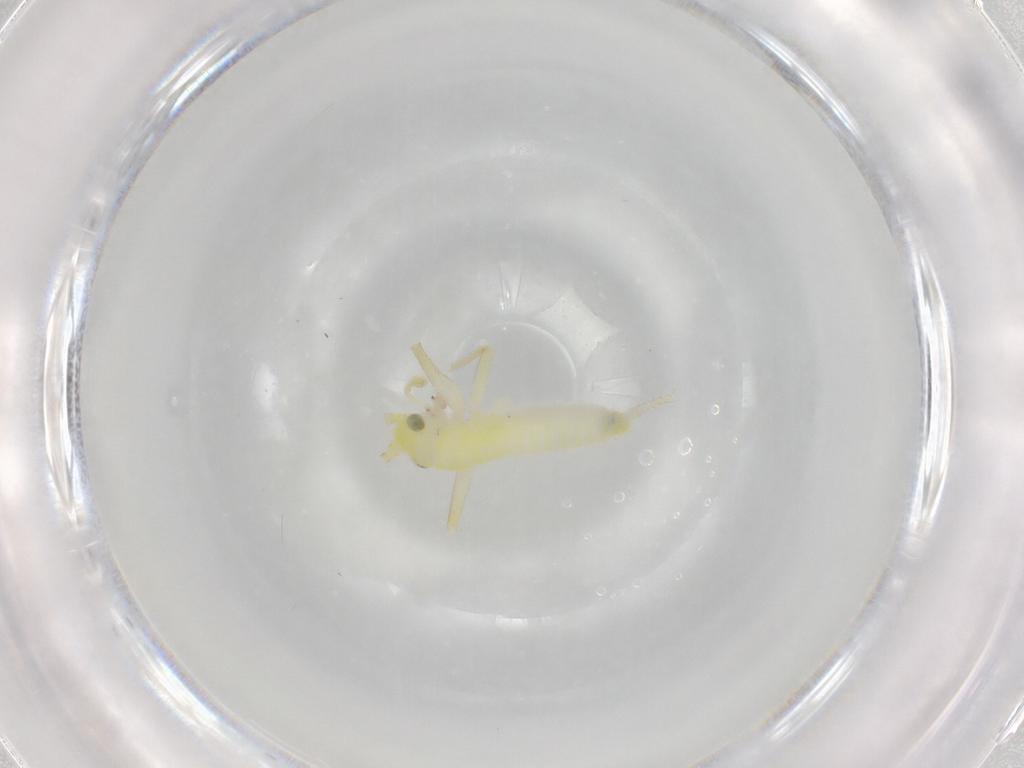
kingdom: Animalia
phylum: Arthropoda
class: Insecta
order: Orthoptera
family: Trigonidiidae
